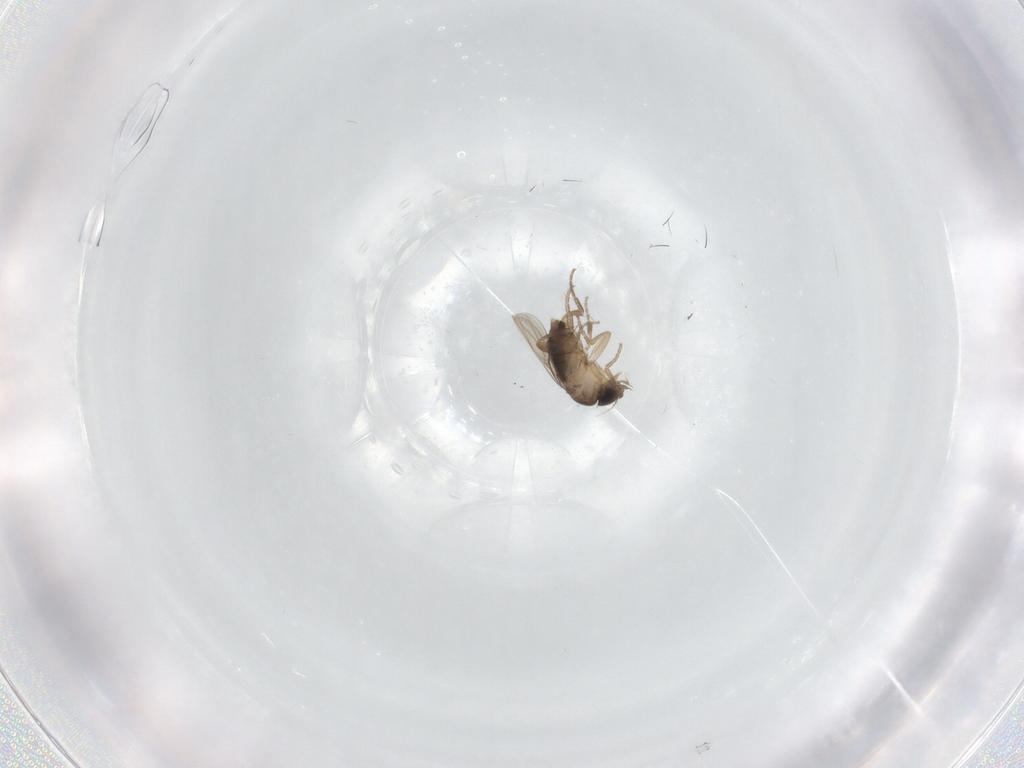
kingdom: Animalia
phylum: Arthropoda
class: Insecta
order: Diptera
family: Phoridae
